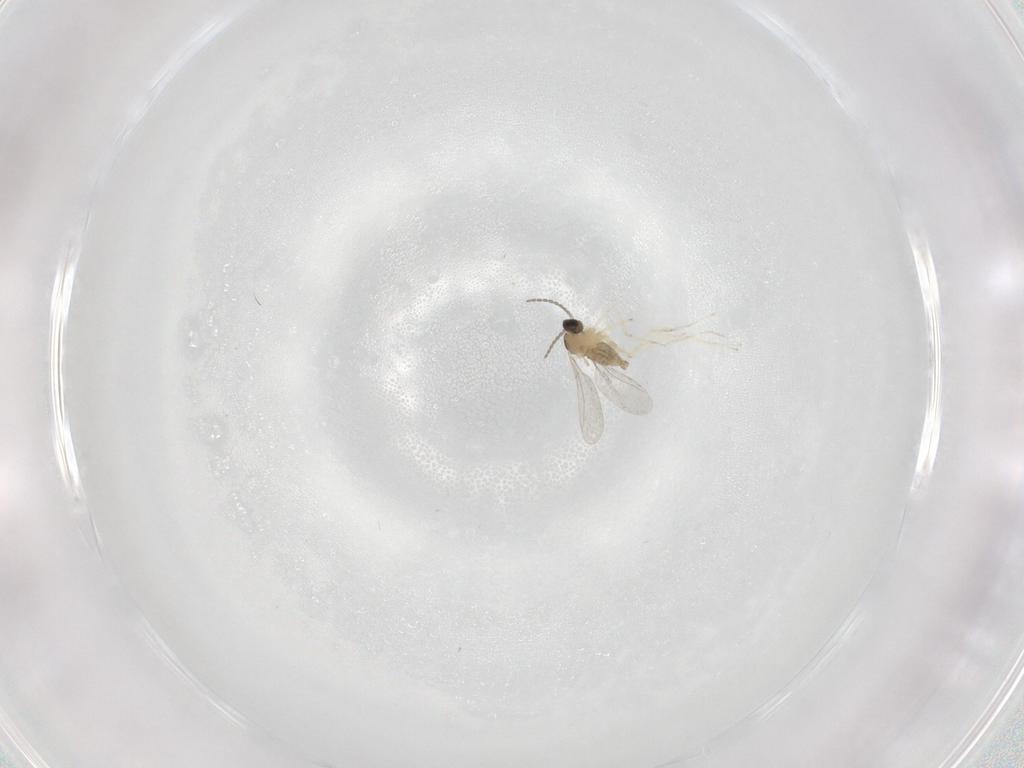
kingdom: Animalia
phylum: Arthropoda
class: Insecta
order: Diptera
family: Cecidomyiidae
